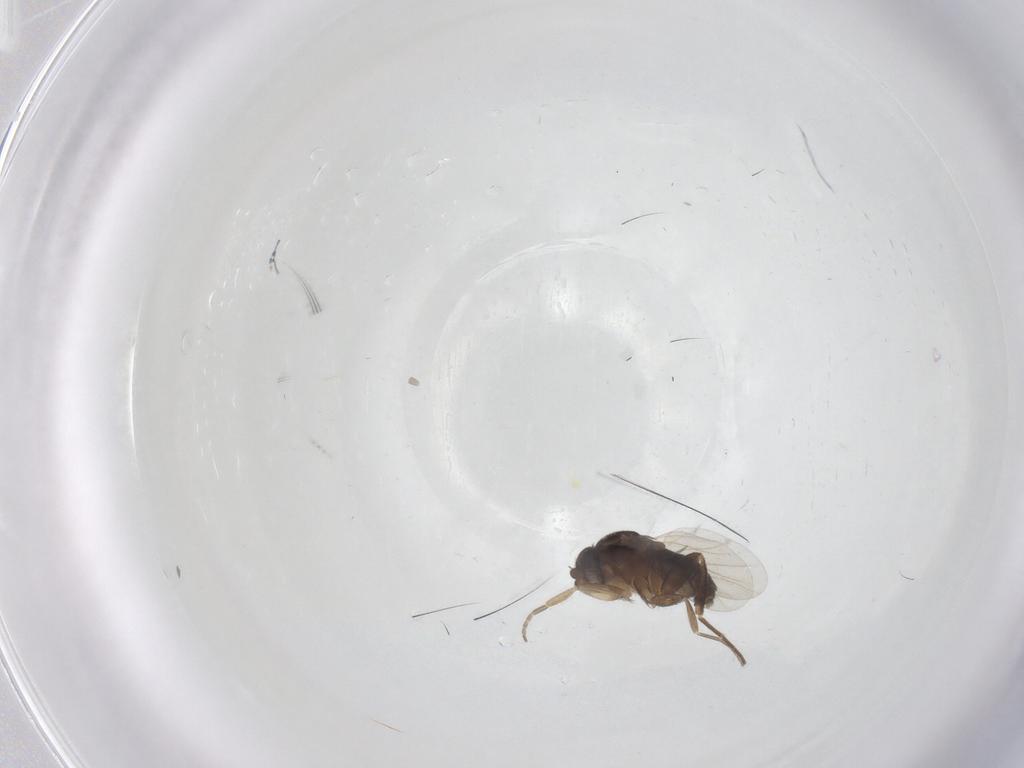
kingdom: Animalia
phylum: Arthropoda
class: Insecta
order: Diptera
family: Phoridae
